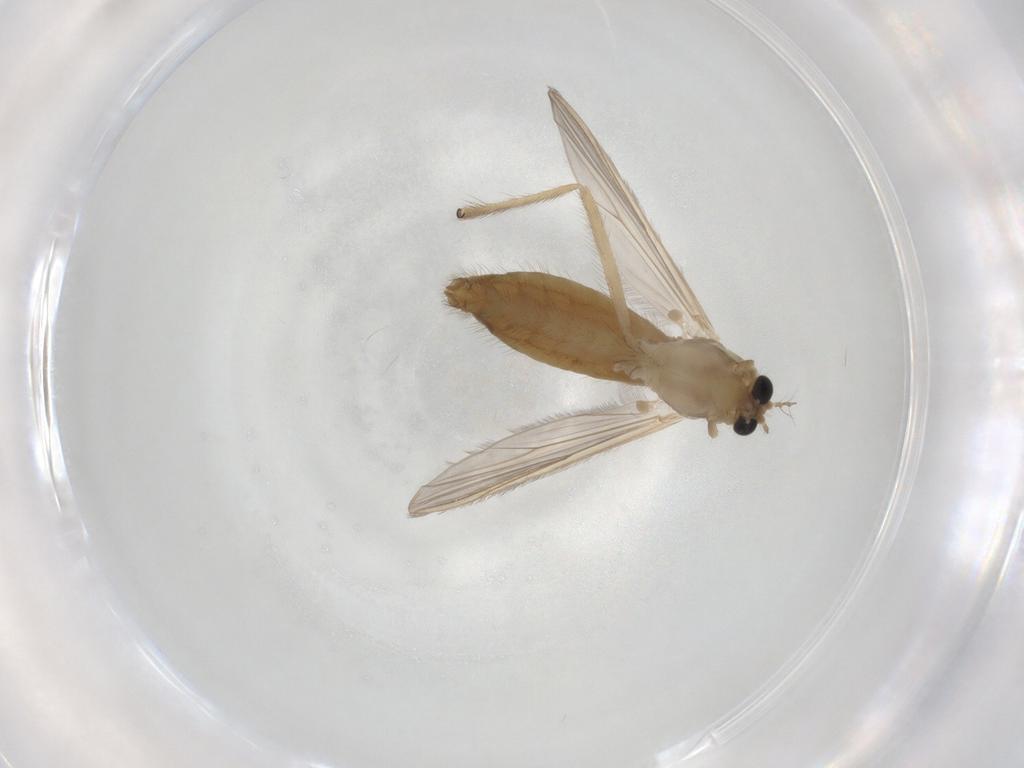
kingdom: Animalia
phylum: Arthropoda
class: Insecta
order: Diptera
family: Chironomidae
